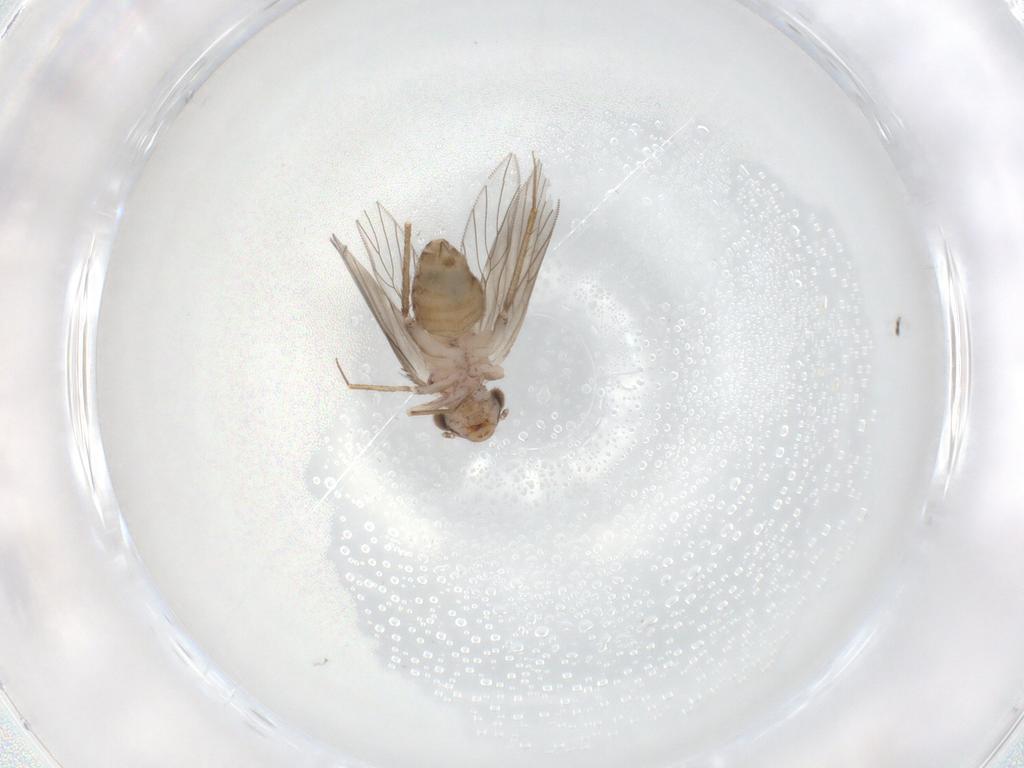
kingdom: Animalia
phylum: Arthropoda
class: Insecta
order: Psocodea
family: Lepidopsocidae
